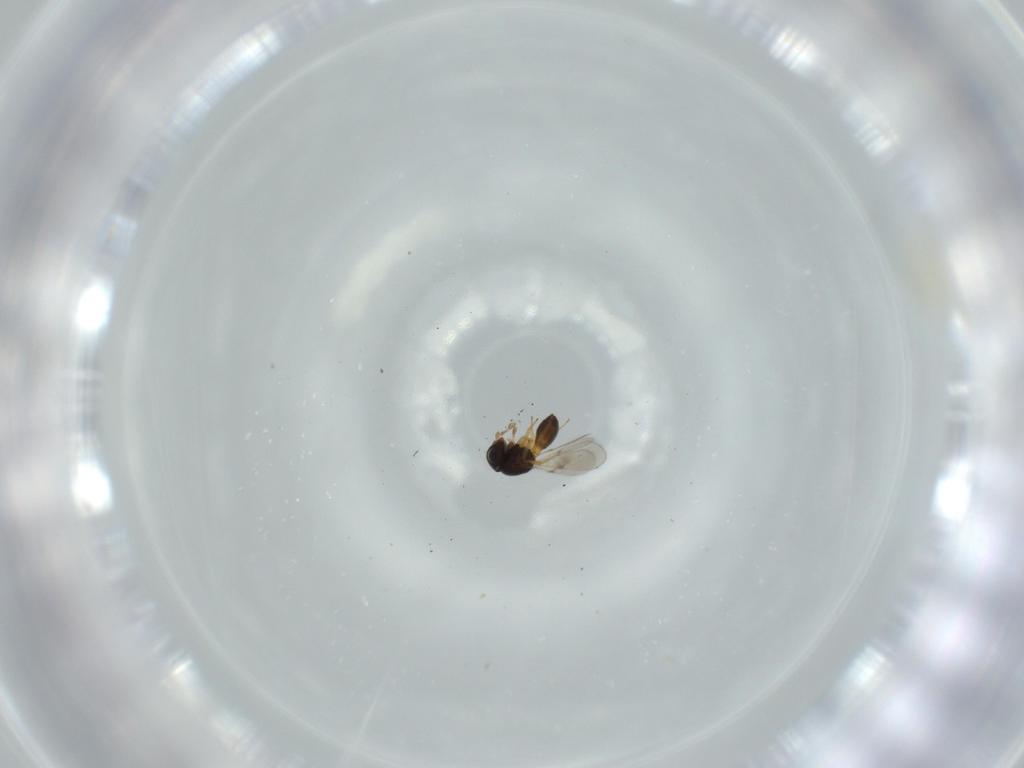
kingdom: Animalia
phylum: Arthropoda
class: Insecta
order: Hymenoptera
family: Scelionidae
